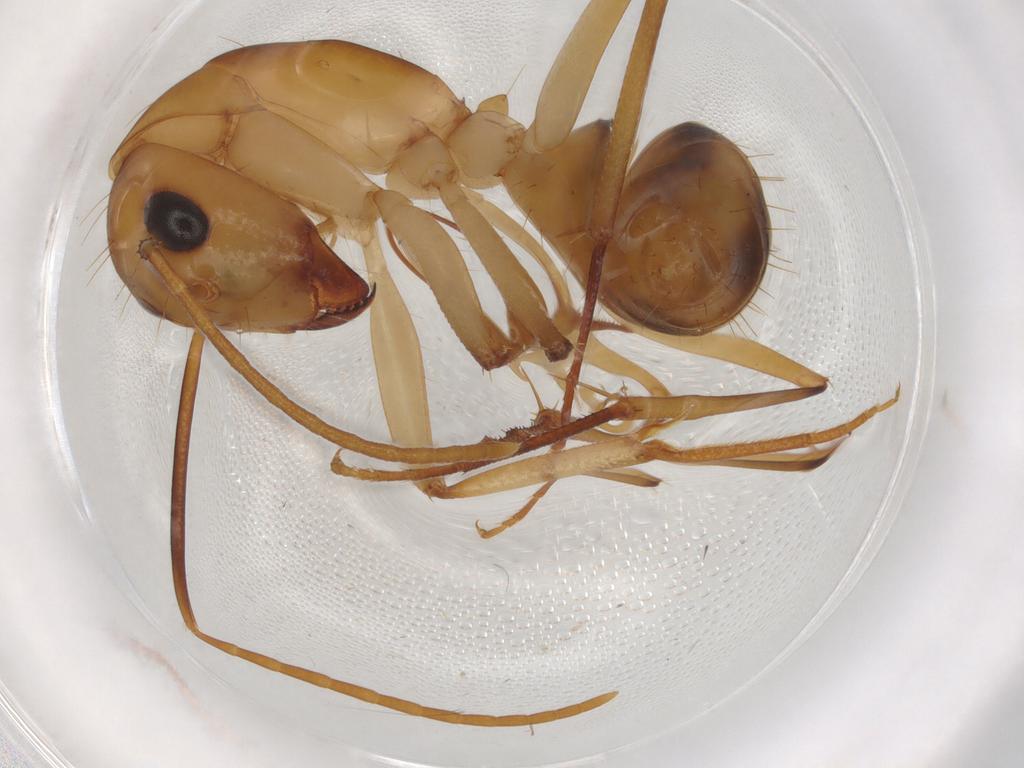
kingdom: Animalia
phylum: Arthropoda
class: Insecta
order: Hymenoptera
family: Formicidae
